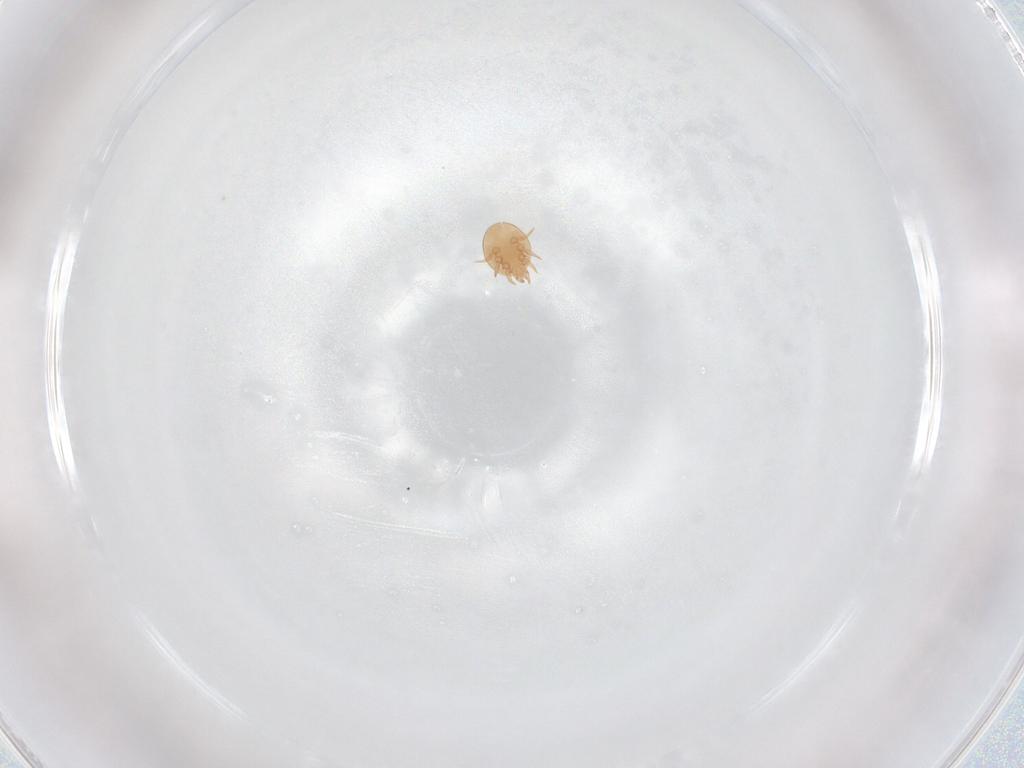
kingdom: Animalia
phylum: Arthropoda
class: Arachnida
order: Mesostigmata
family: Trematuridae
